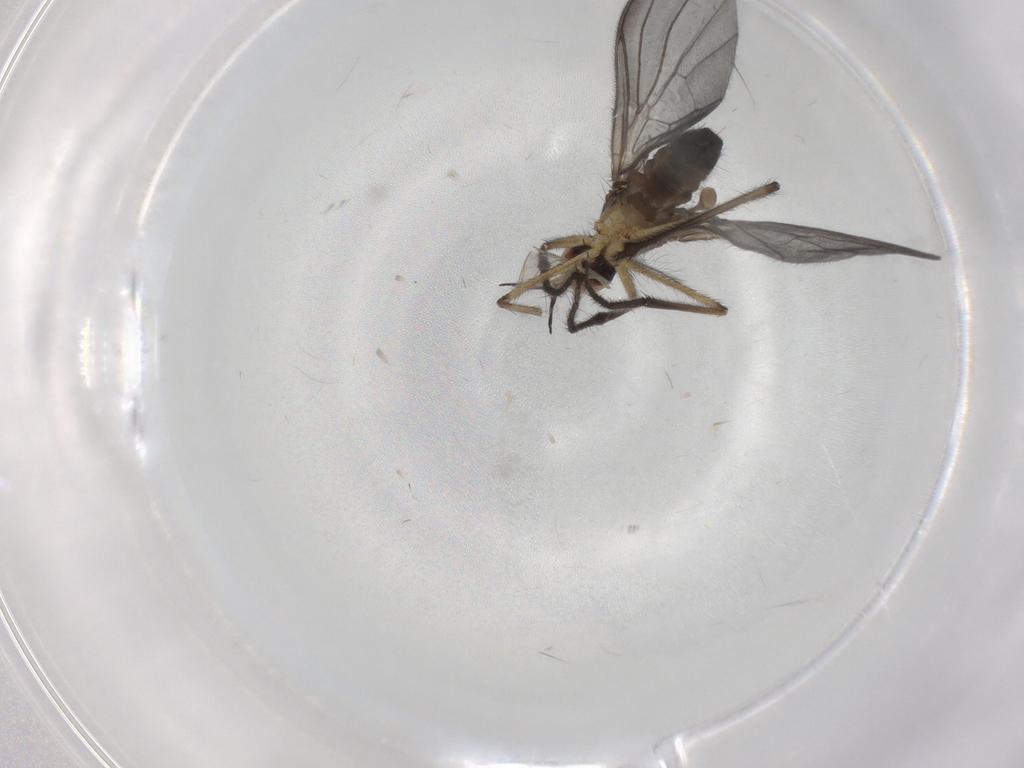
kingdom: Animalia
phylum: Arthropoda
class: Insecta
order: Diptera
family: Empididae
